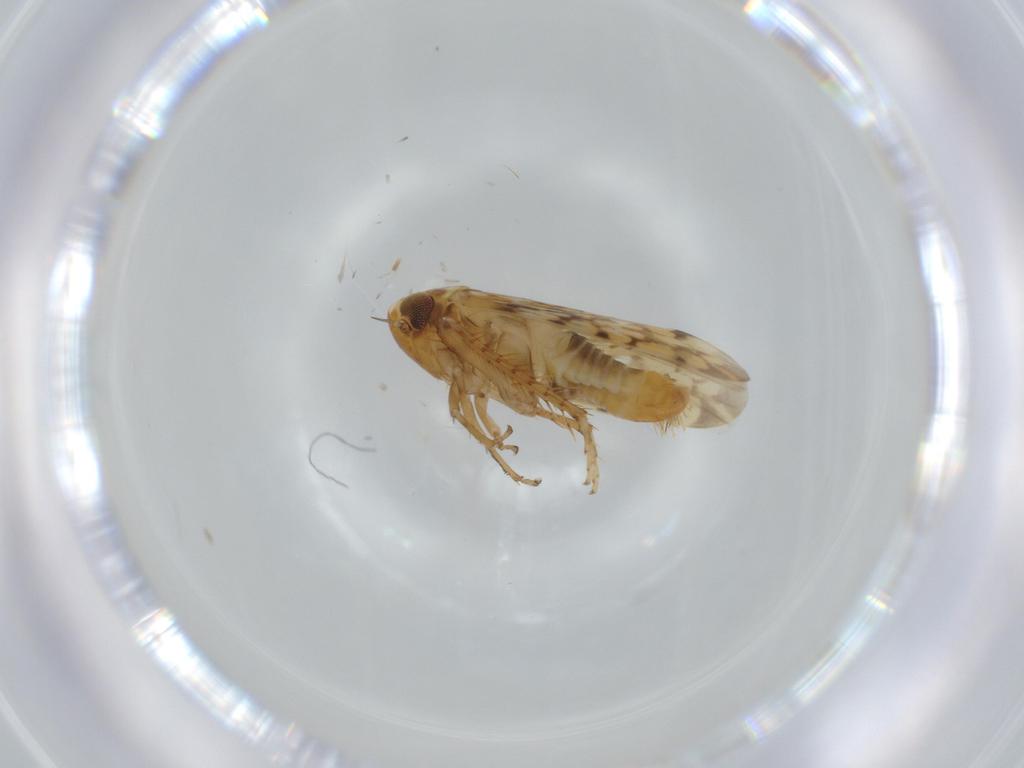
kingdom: Animalia
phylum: Arthropoda
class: Insecta
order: Hemiptera
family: Cicadellidae
